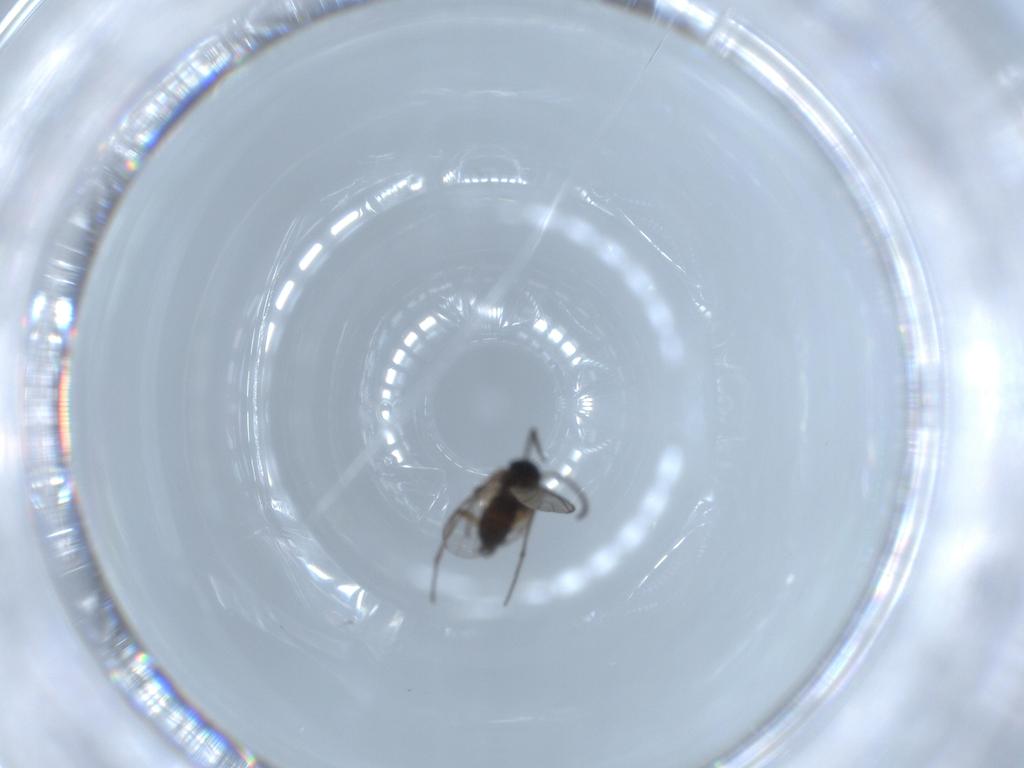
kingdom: Animalia
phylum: Arthropoda
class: Insecta
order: Diptera
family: Sciaridae
